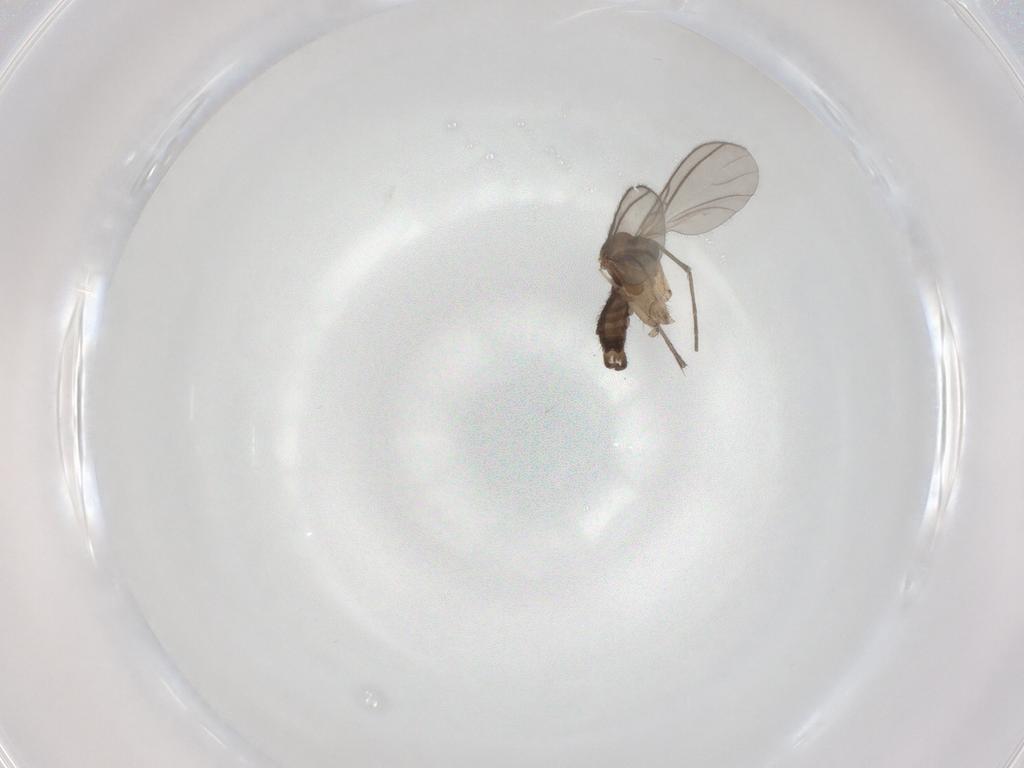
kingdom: Animalia
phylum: Arthropoda
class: Insecta
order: Diptera
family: Sciaridae
